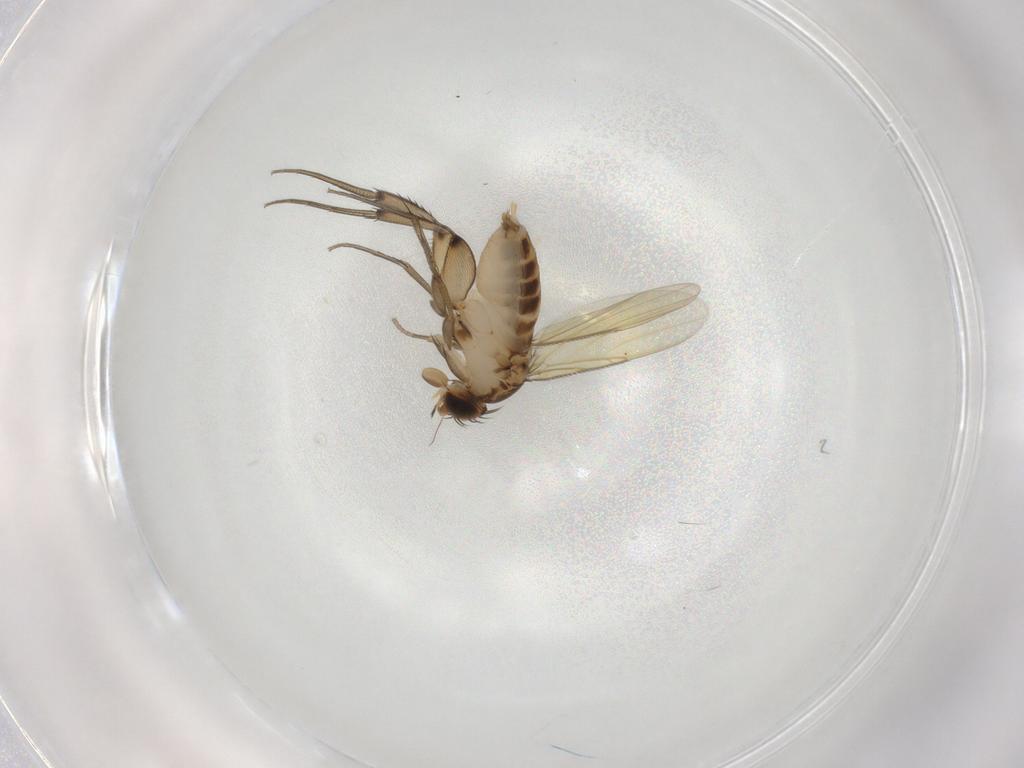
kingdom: Animalia
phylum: Arthropoda
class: Insecta
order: Diptera
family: Phoridae
